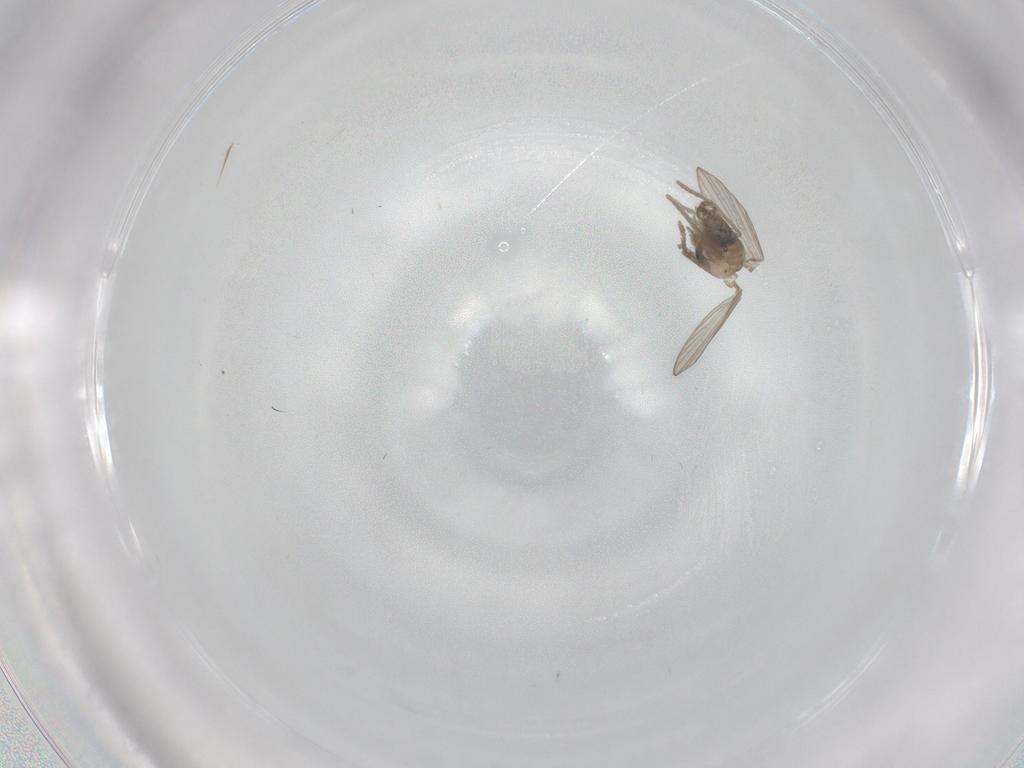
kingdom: Animalia
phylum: Arthropoda
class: Insecta
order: Diptera
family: Psychodidae
